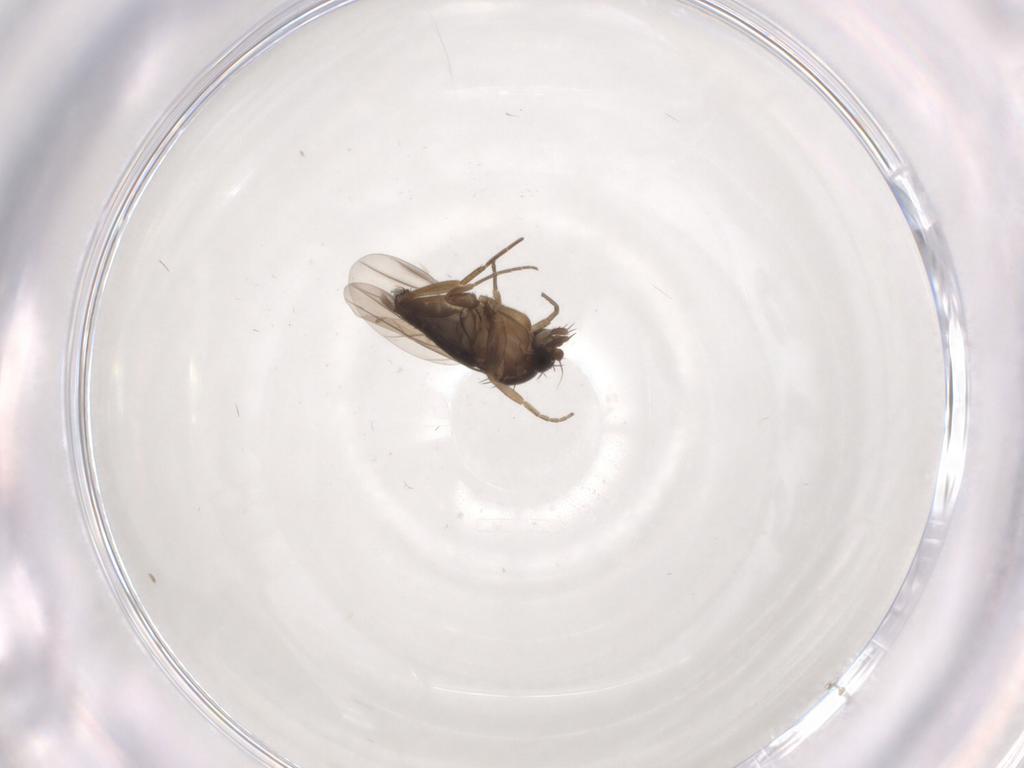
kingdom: Animalia
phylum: Arthropoda
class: Insecta
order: Diptera
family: Phoridae
